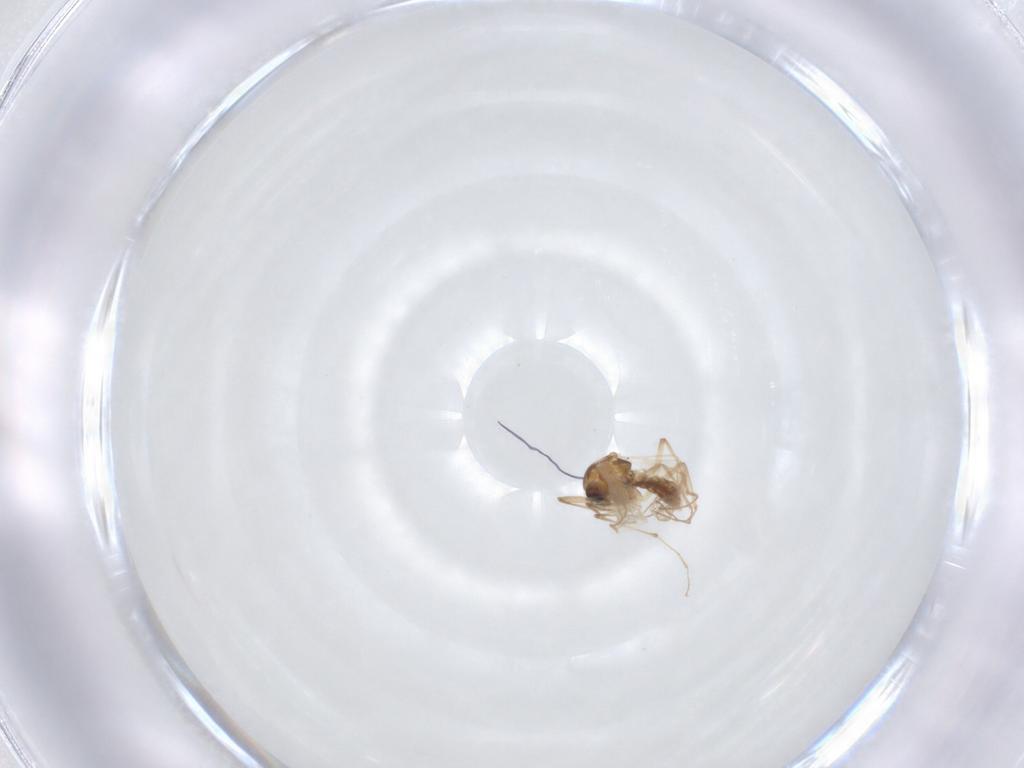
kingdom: Animalia
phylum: Arthropoda
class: Insecta
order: Diptera
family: Chironomidae
